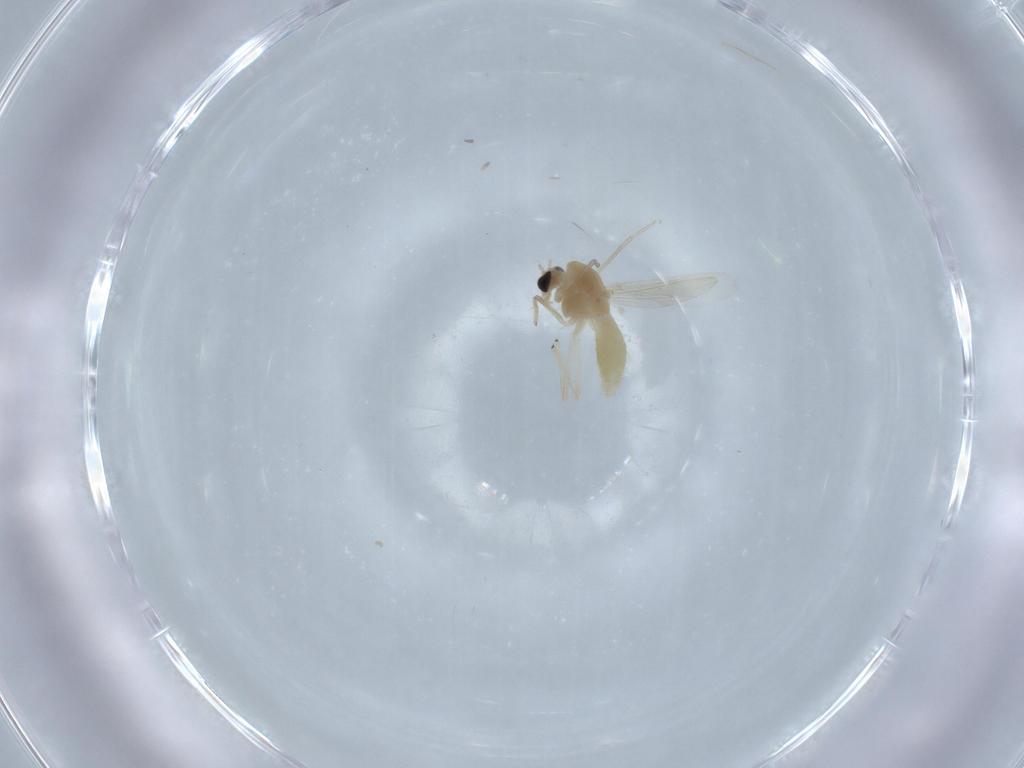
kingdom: Animalia
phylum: Arthropoda
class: Insecta
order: Diptera
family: Chironomidae
